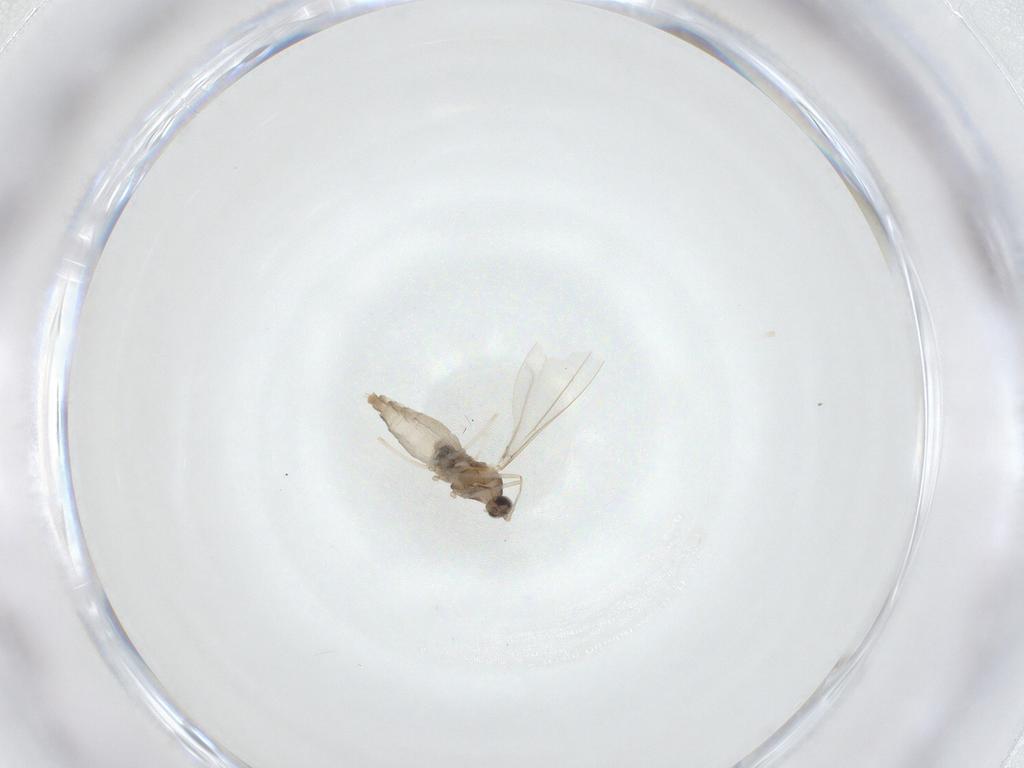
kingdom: Animalia
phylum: Arthropoda
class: Insecta
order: Diptera
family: Cecidomyiidae
